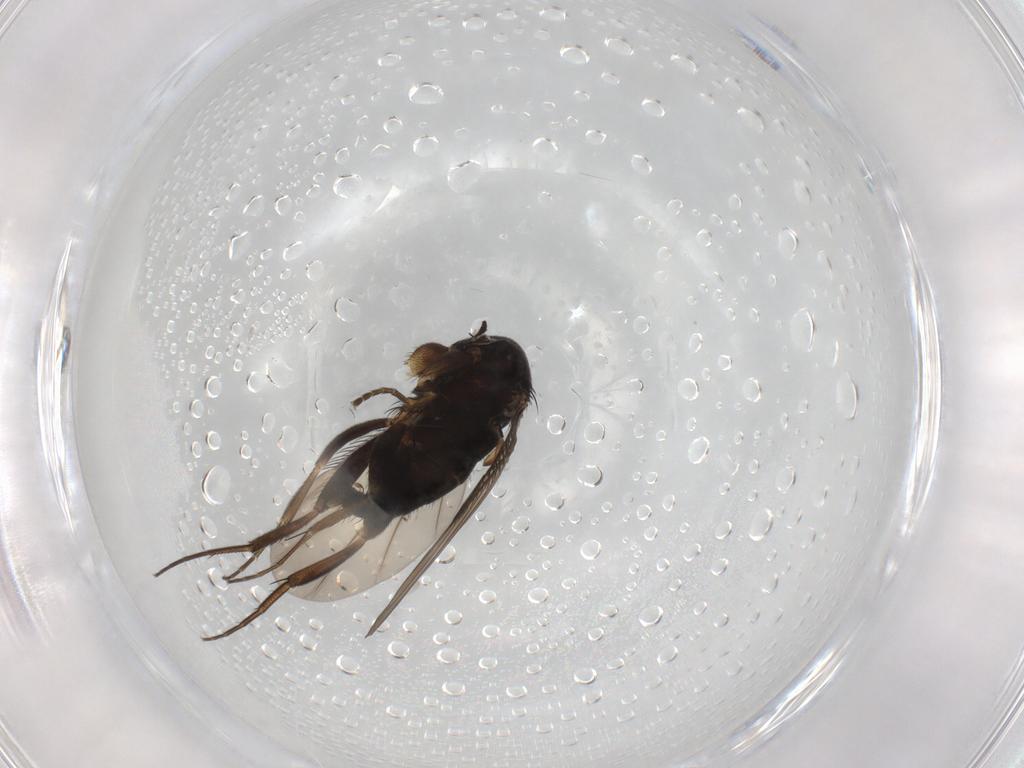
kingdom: Animalia
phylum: Arthropoda
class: Insecta
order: Diptera
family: Phoridae
